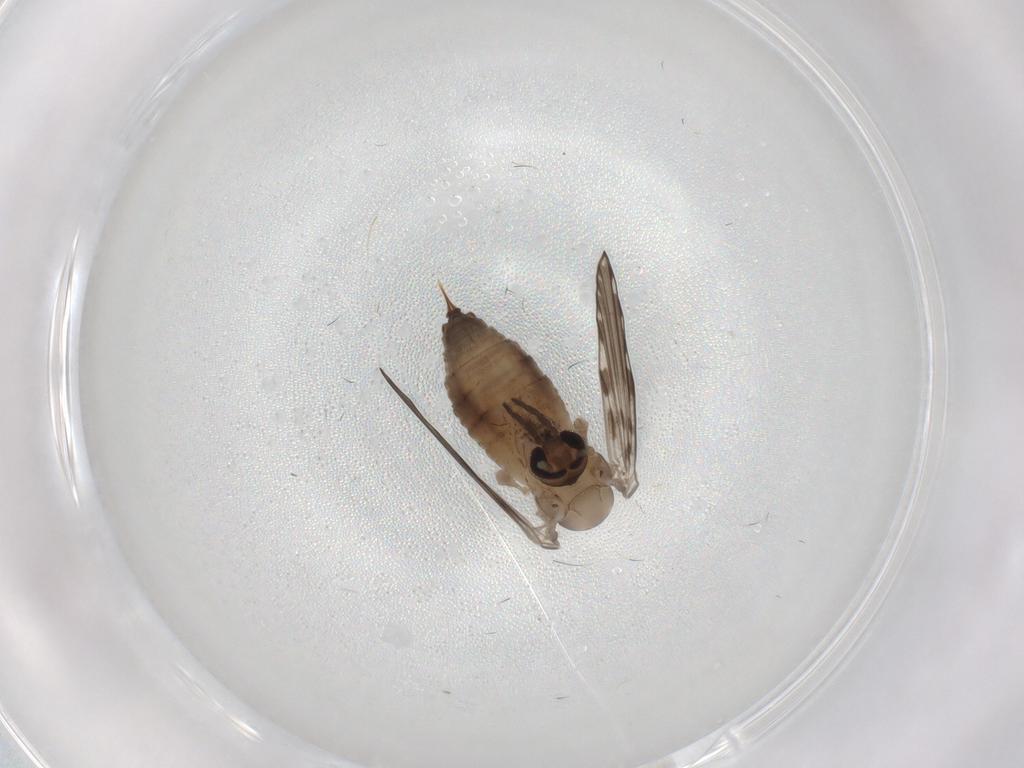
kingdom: Animalia
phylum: Arthropoda
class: Insecta
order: Diptera
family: Psychodidae
